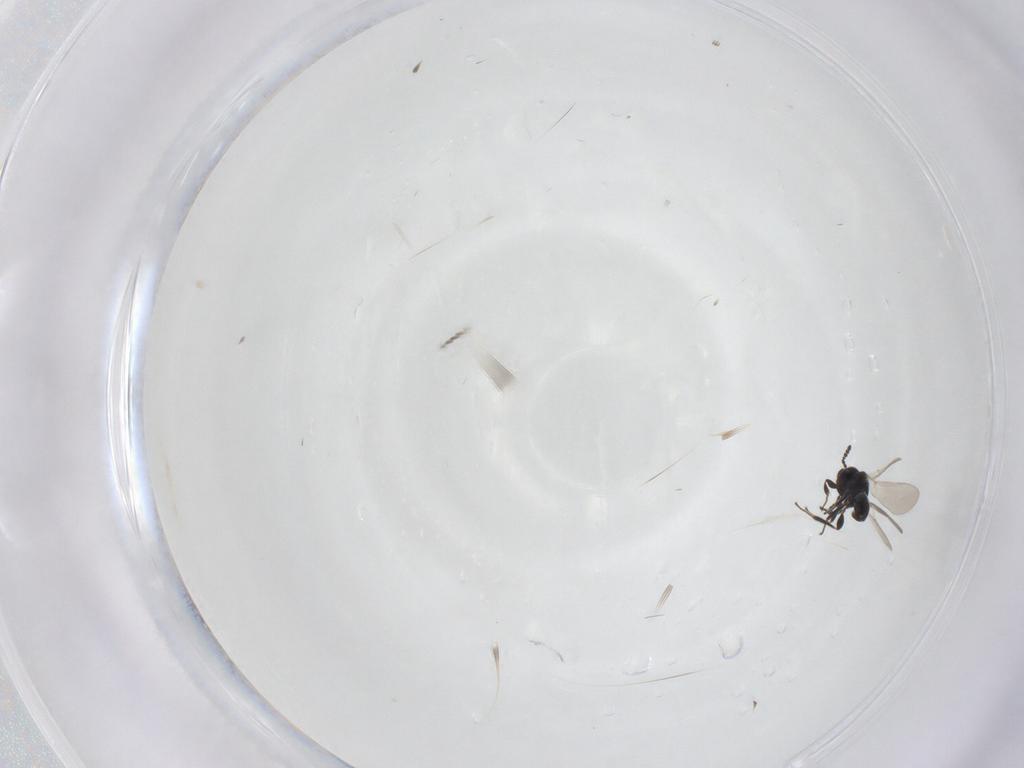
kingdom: Animalia
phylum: Arthropoda
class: Insecta
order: Hymenoptera
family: Platygastridae
